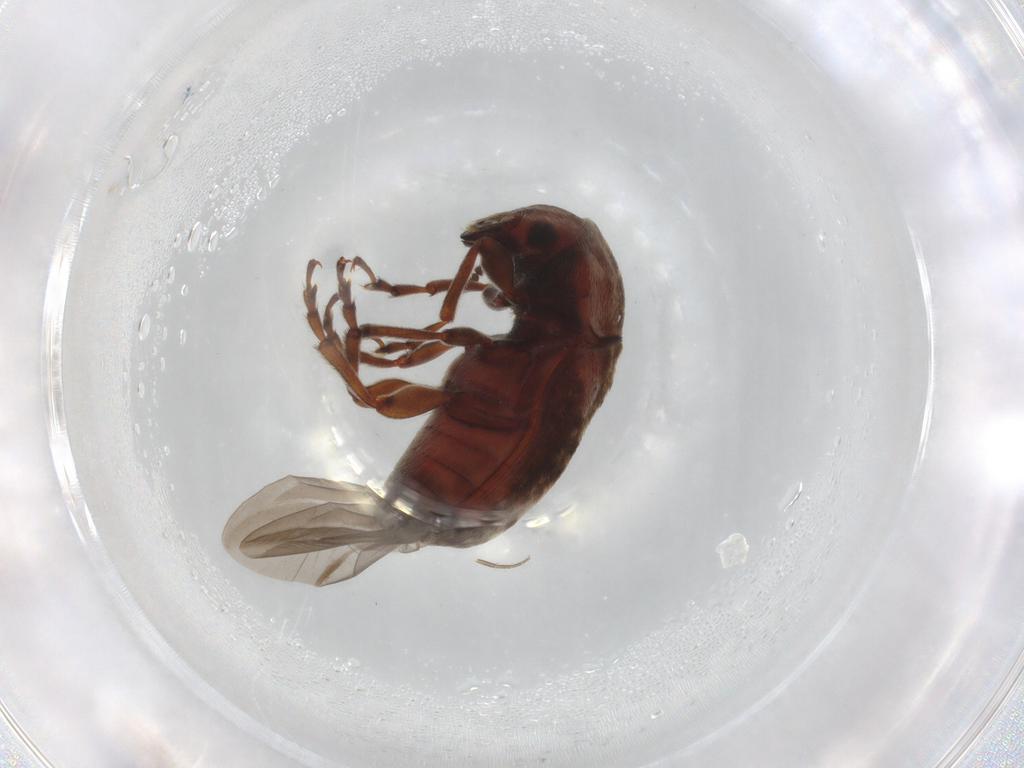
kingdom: Animalia
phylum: Arthropoda
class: Insecta
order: Coleoptera
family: Anthribidae
